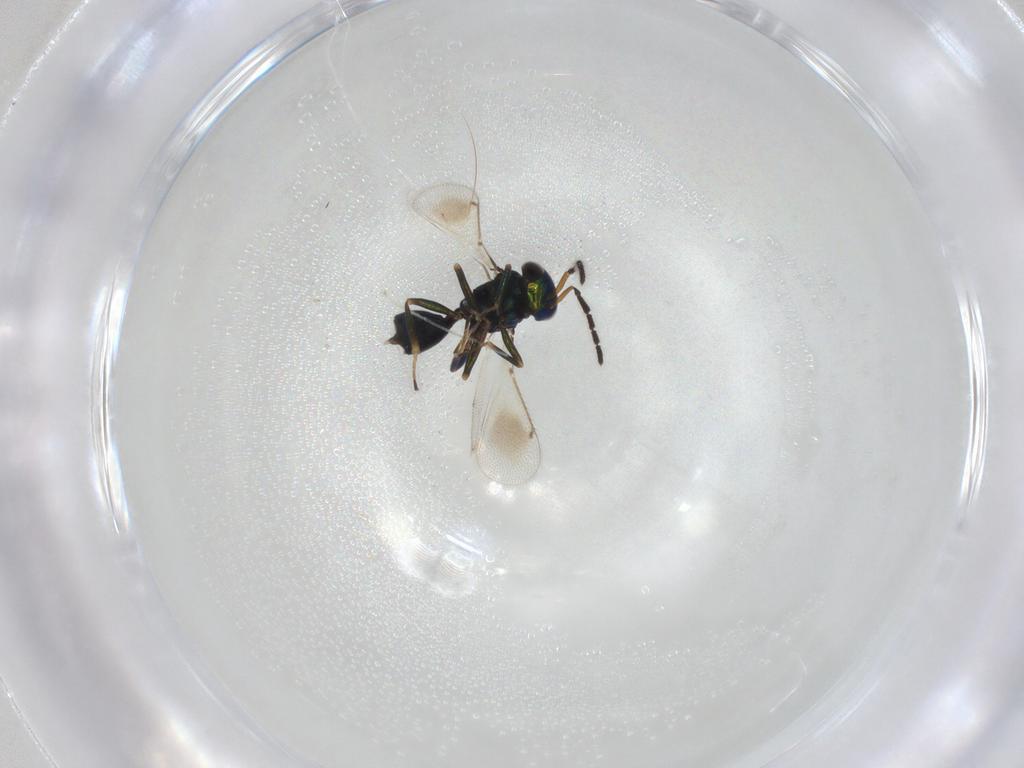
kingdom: Animalia
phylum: Arthropoda
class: Insecta
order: Hymenoptera
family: Eulophidae
